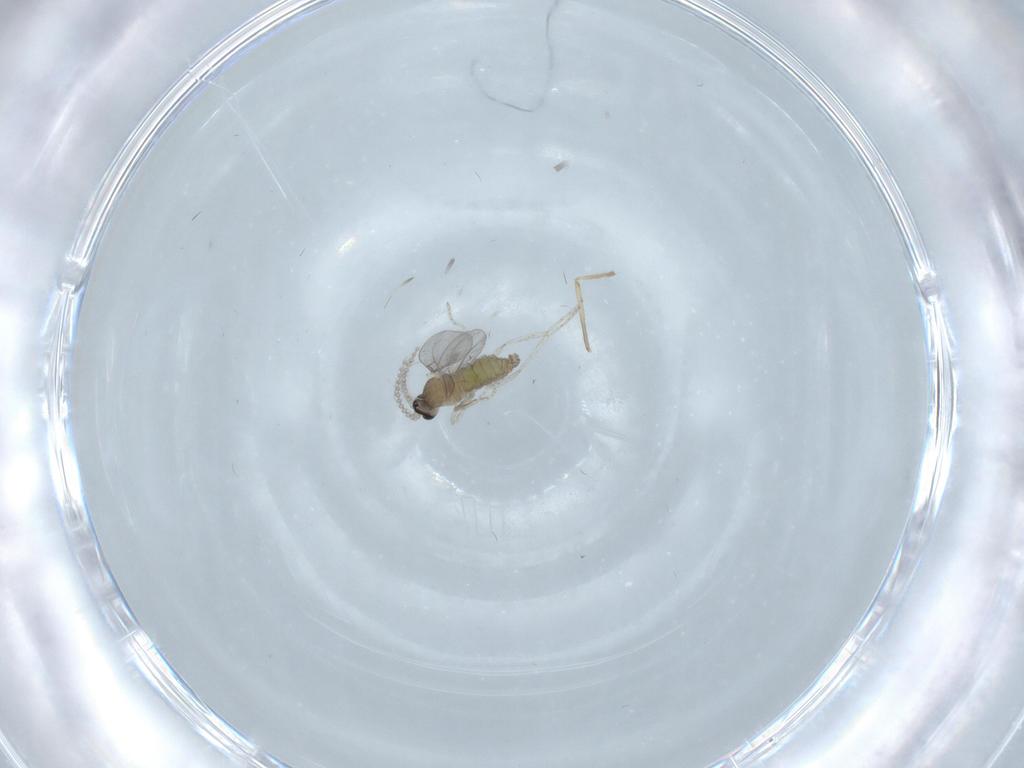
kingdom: Animalia
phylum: Arthropoda
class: Insecta
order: Diptera
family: Cecidomyiidae
